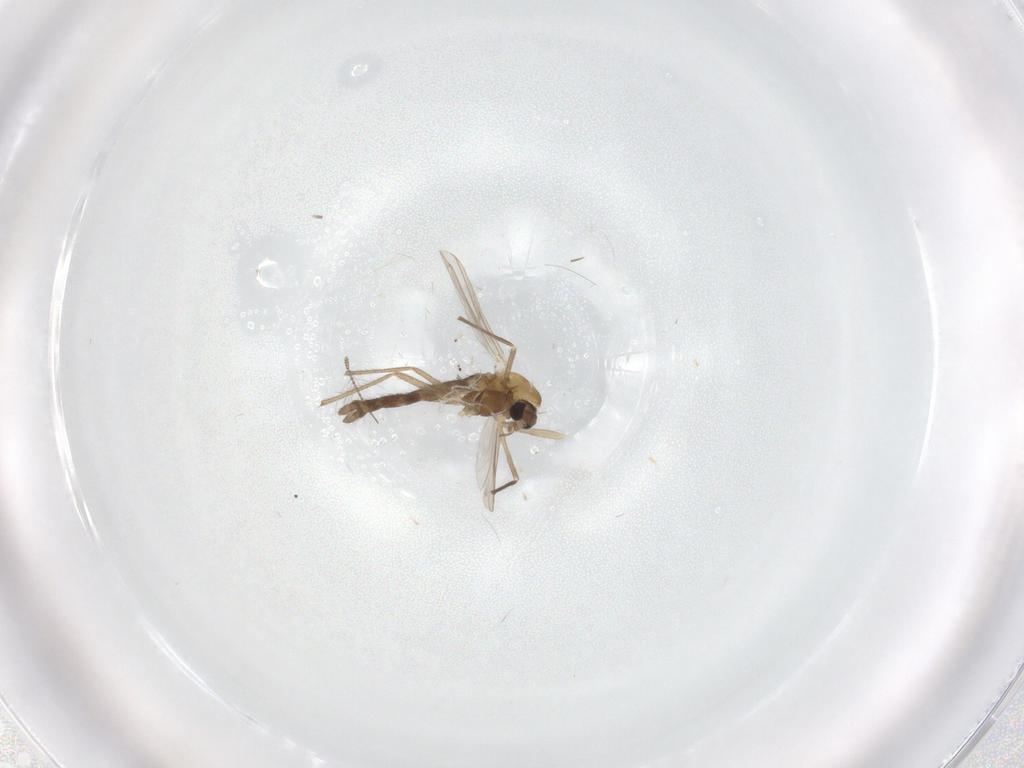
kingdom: Animalia
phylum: Arthropoda
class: Insecta
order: Diptera
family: Chironomidae
